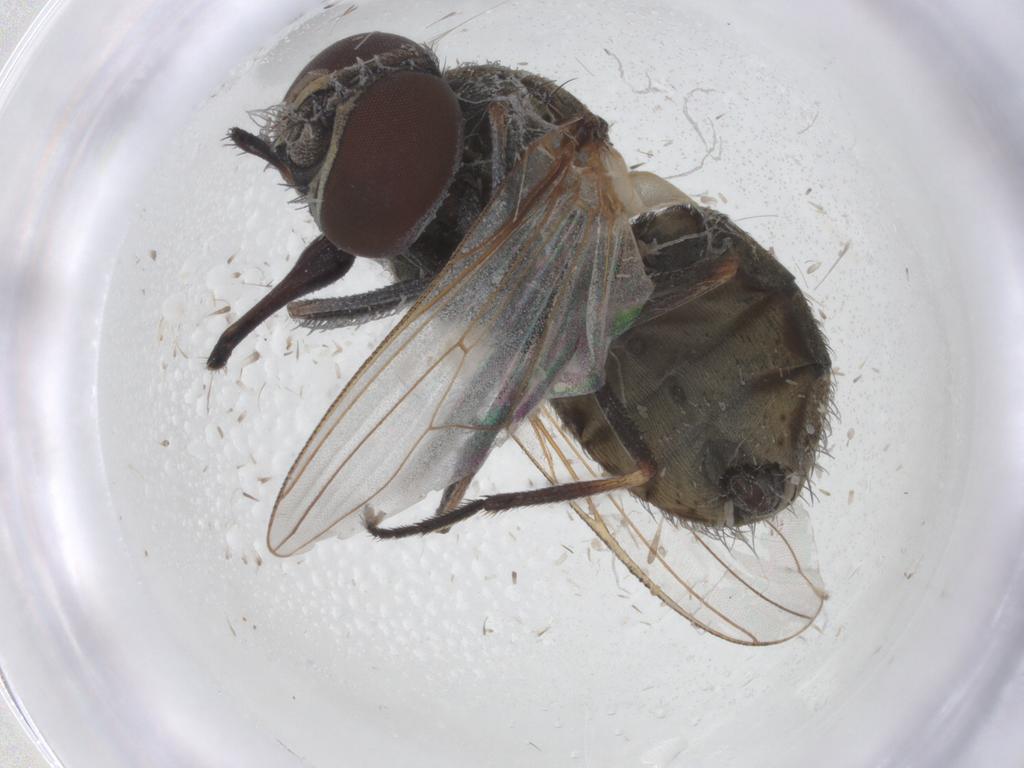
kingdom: Animalia
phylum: Arthropoda
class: Insecta
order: Diptera
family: Muscidae
